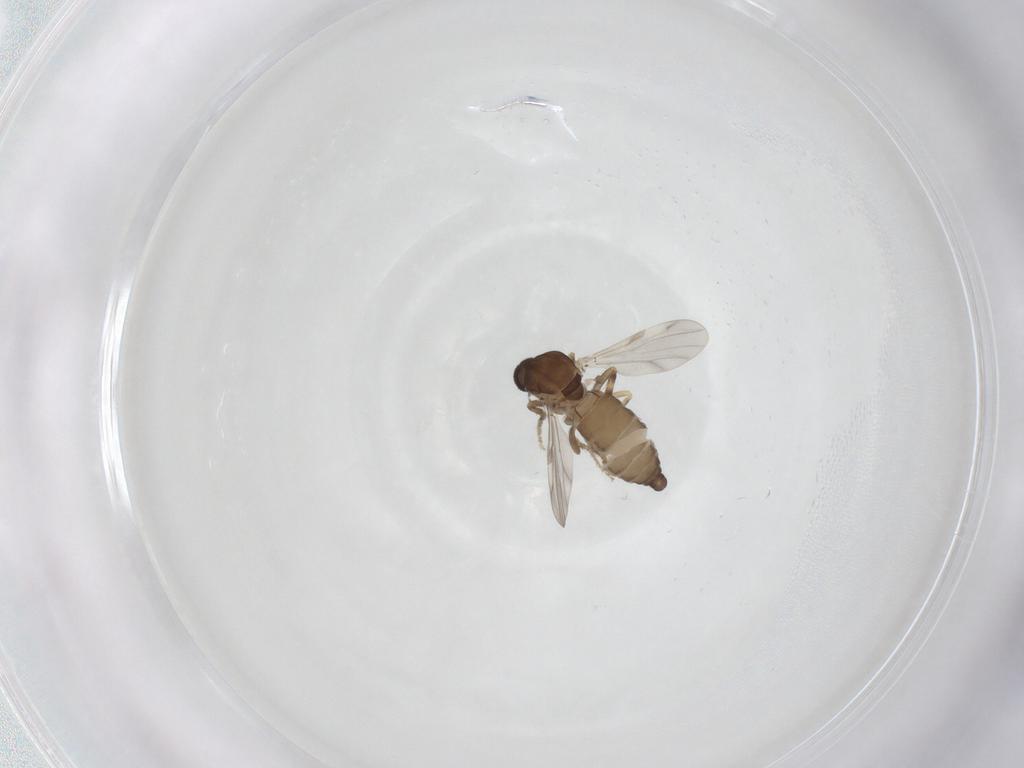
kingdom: Animalia
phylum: Arthropoda
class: Insecta
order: Diptera
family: Ceratopogonidae
